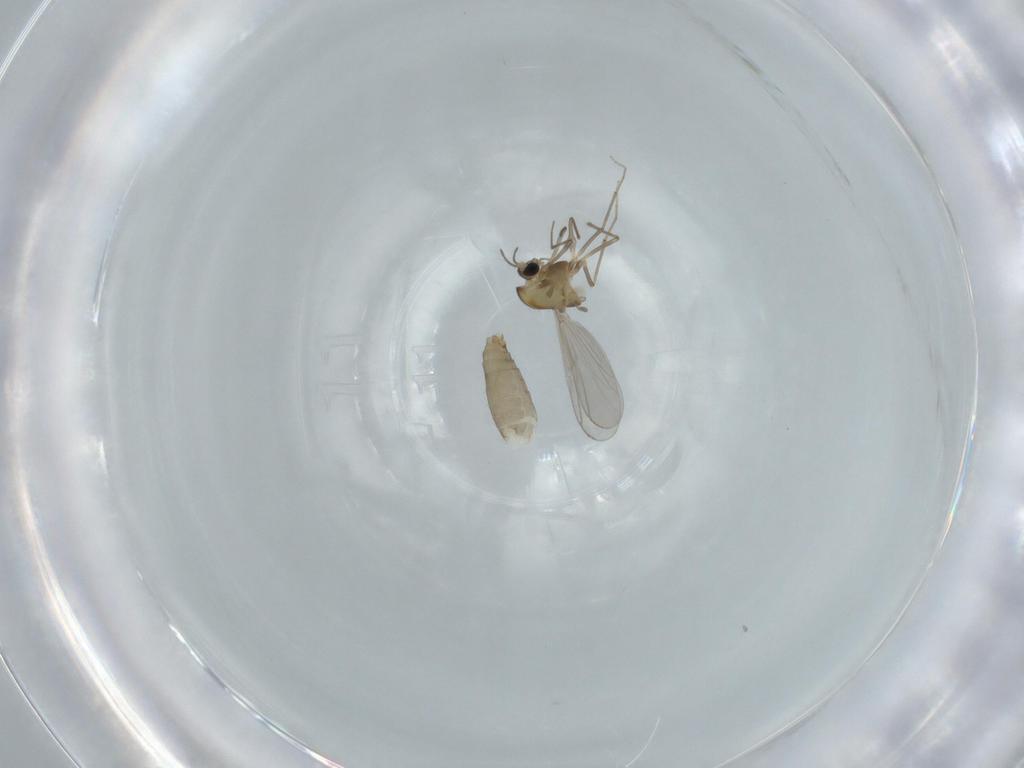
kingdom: Animalia
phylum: Arthropoda
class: Insecta
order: Diptera
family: Chironomidae
